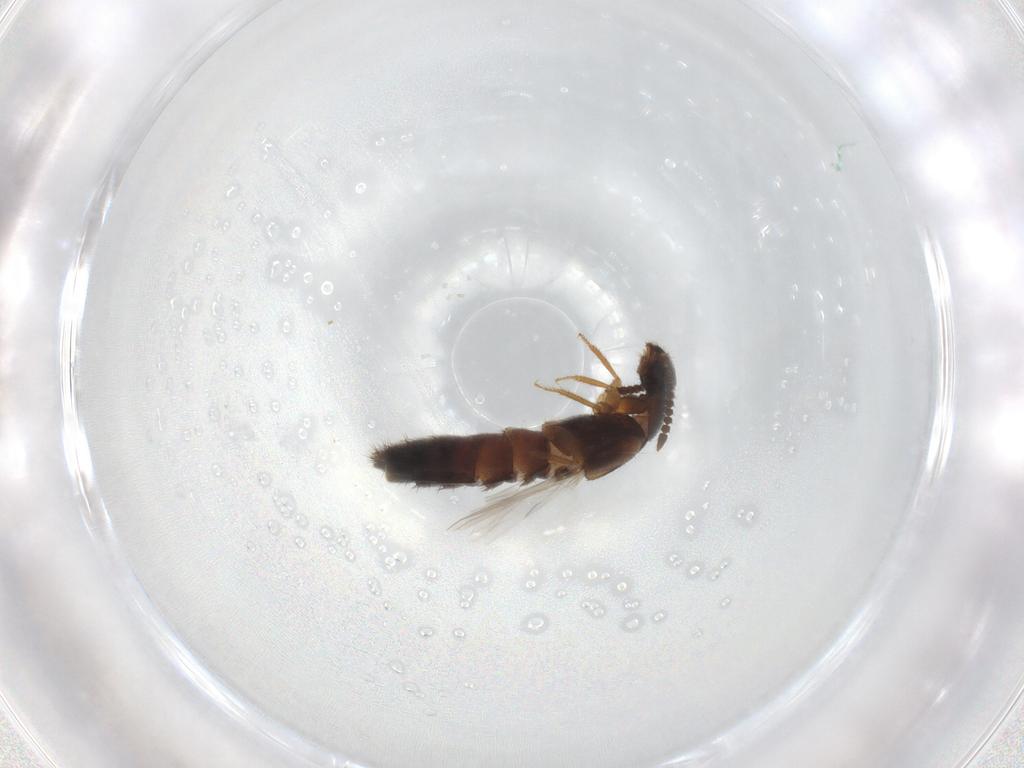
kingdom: Animalia
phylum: Arthropoda
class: Insecta
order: Coleoptera
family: Staphylinidae
